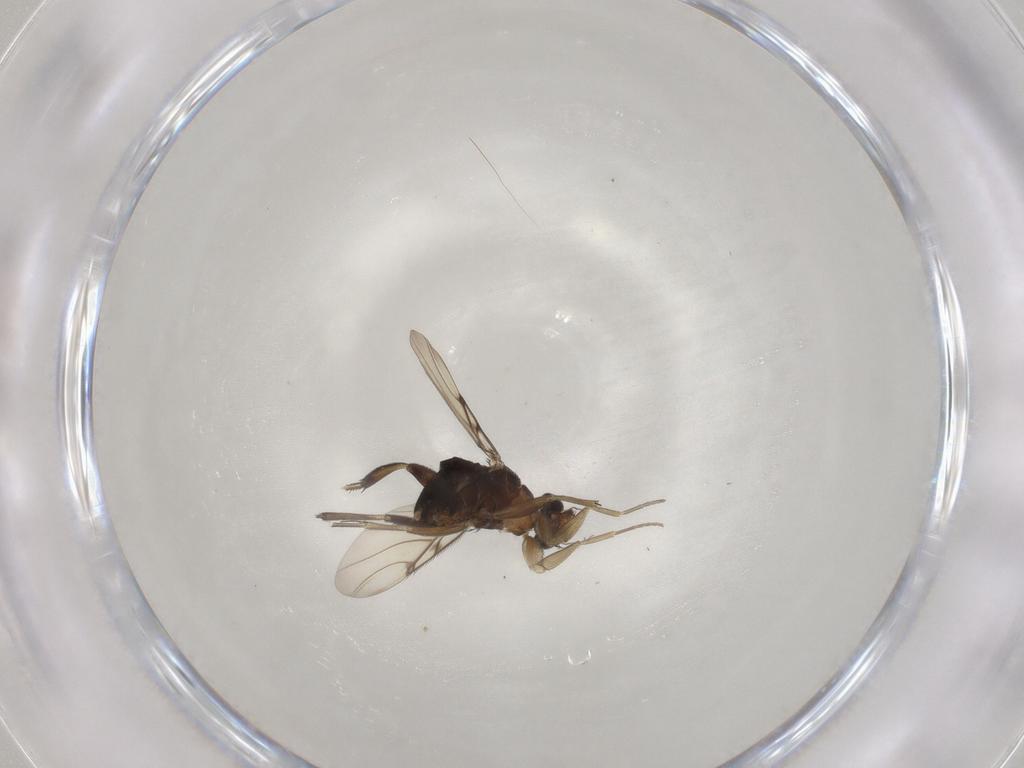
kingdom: Animalia
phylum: Arthropoda
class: Insecta
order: Diptera
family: Phoridae
